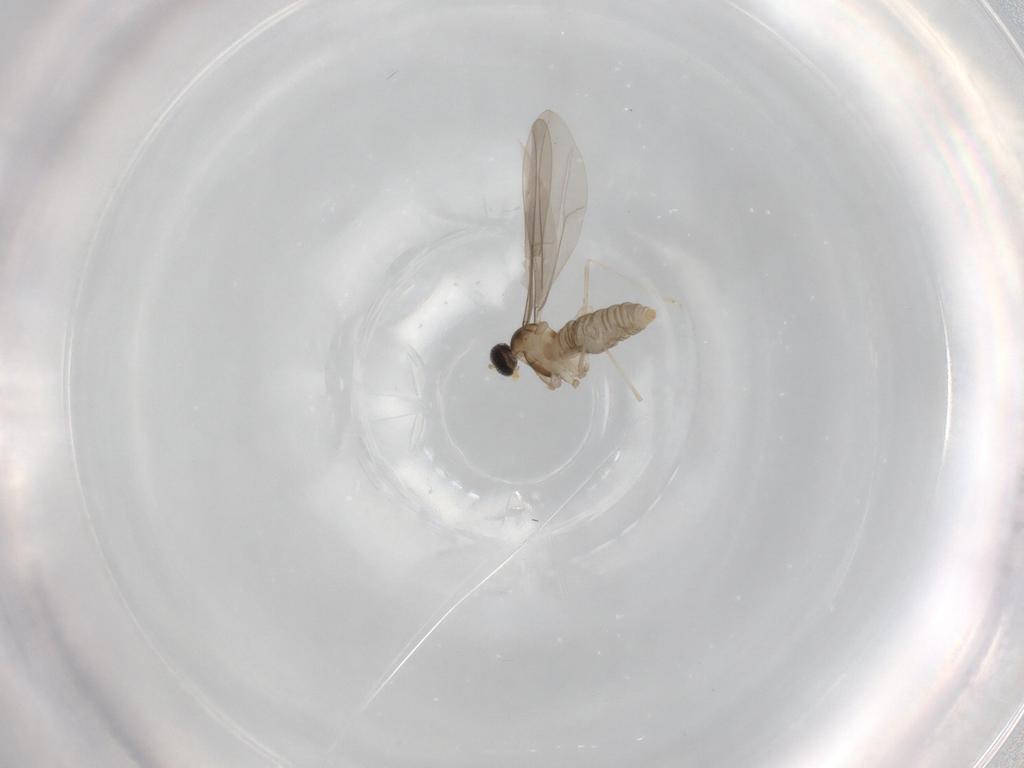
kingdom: Animalia
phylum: Arthropoda
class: Insecta
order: Diptera
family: Cecidomyiidae
